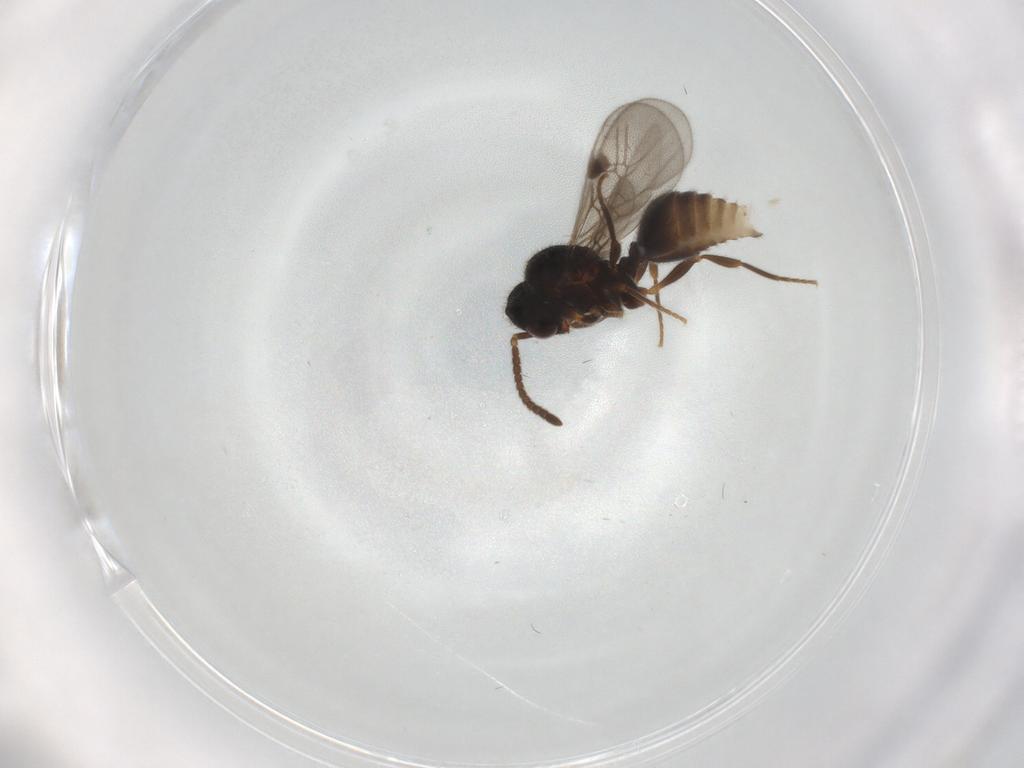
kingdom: Animalia
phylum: Arthropoda
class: Insecta
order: Hymenoptera
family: Formicidae
